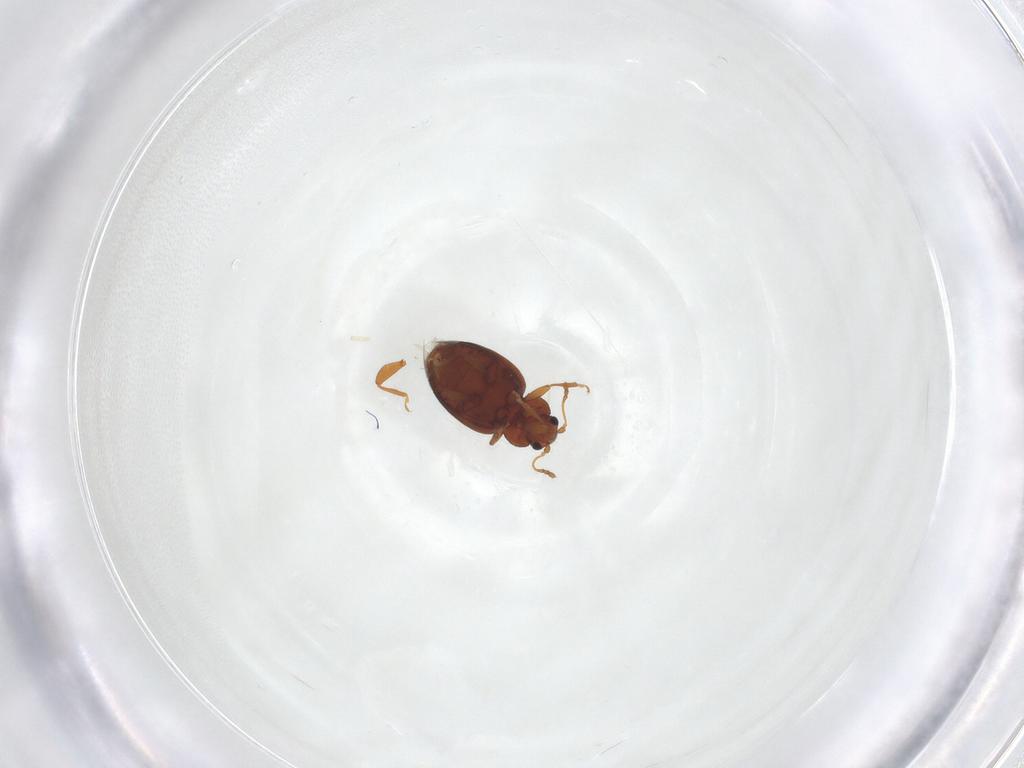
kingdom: Animalia
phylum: Arthropoda
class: Insecta
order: Coleoptera
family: Latridiidae
